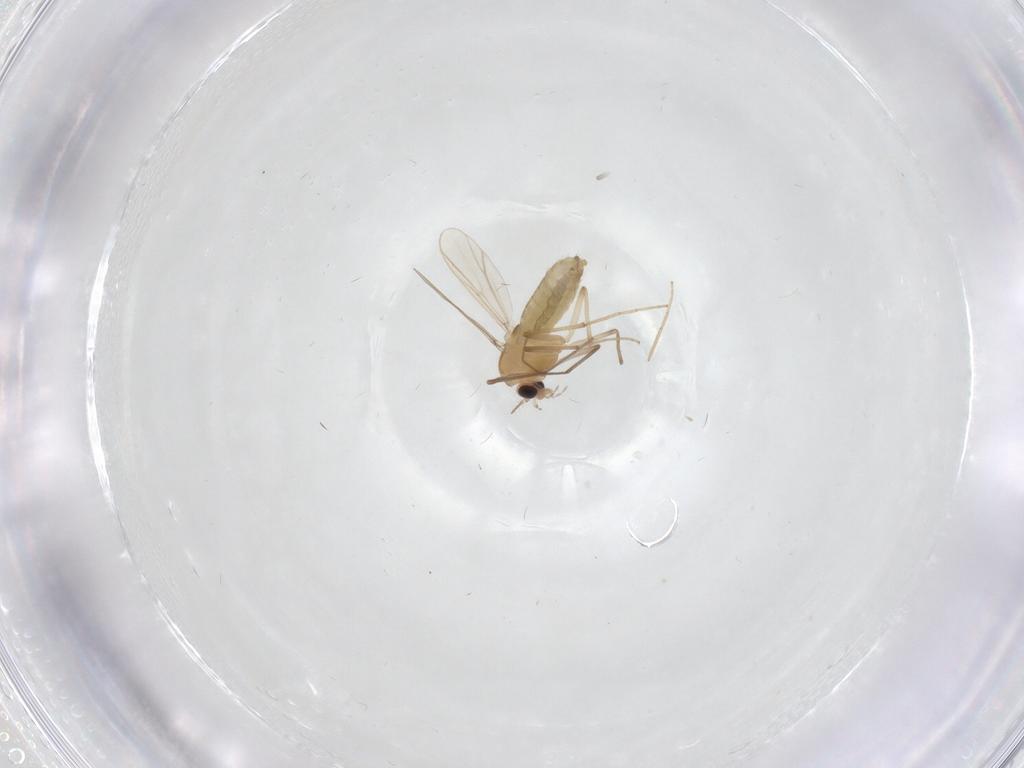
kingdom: Animalia
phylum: Arthropoda
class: Insecta
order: Diptera
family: Chironomidae
